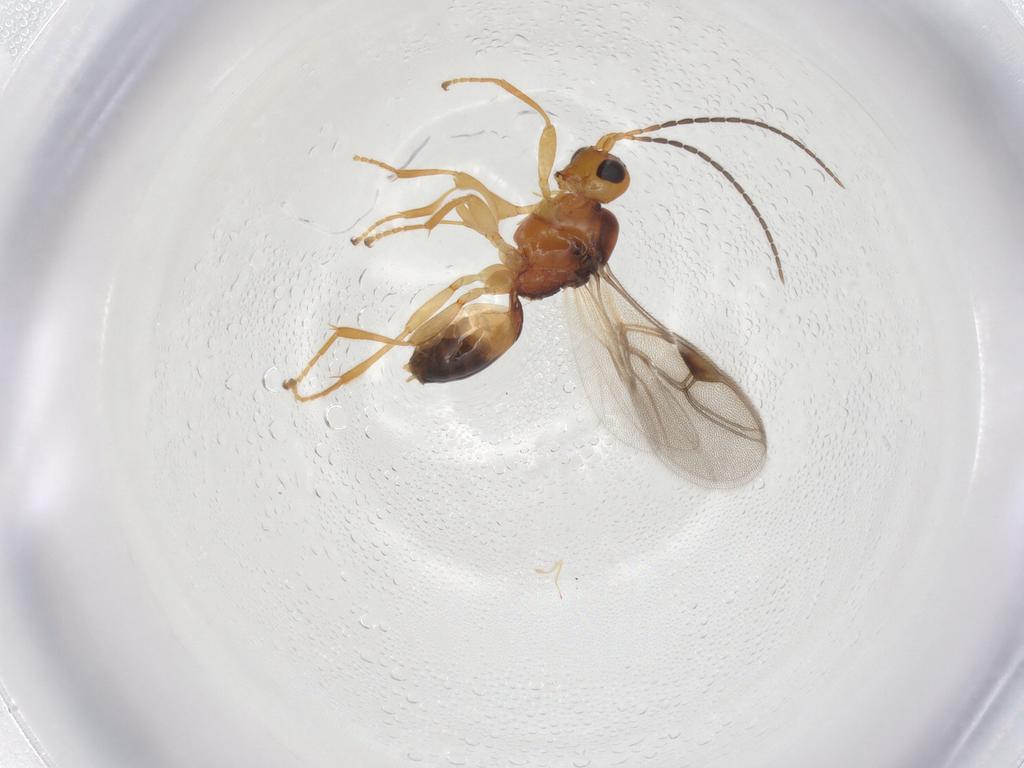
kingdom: Animalia
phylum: Arthropoda
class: Insecta
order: Hymenoptera
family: Braconidae
